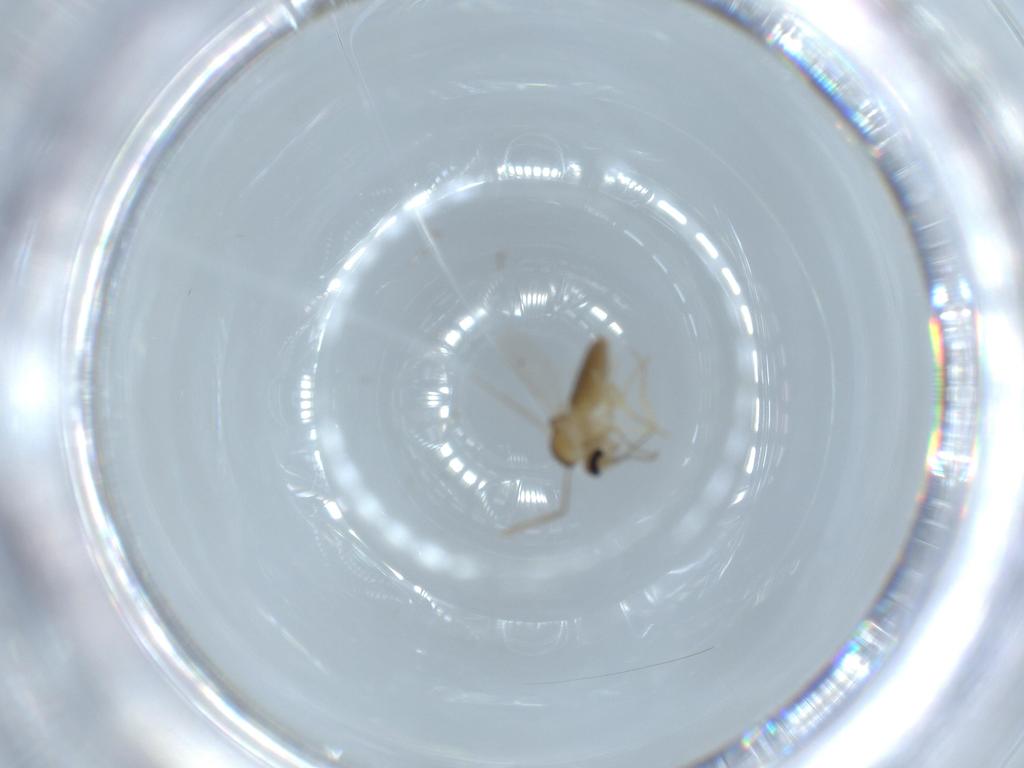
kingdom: Animalia
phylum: Arthropoda
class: Insecta
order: Diptera
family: Ceratopogonidae
